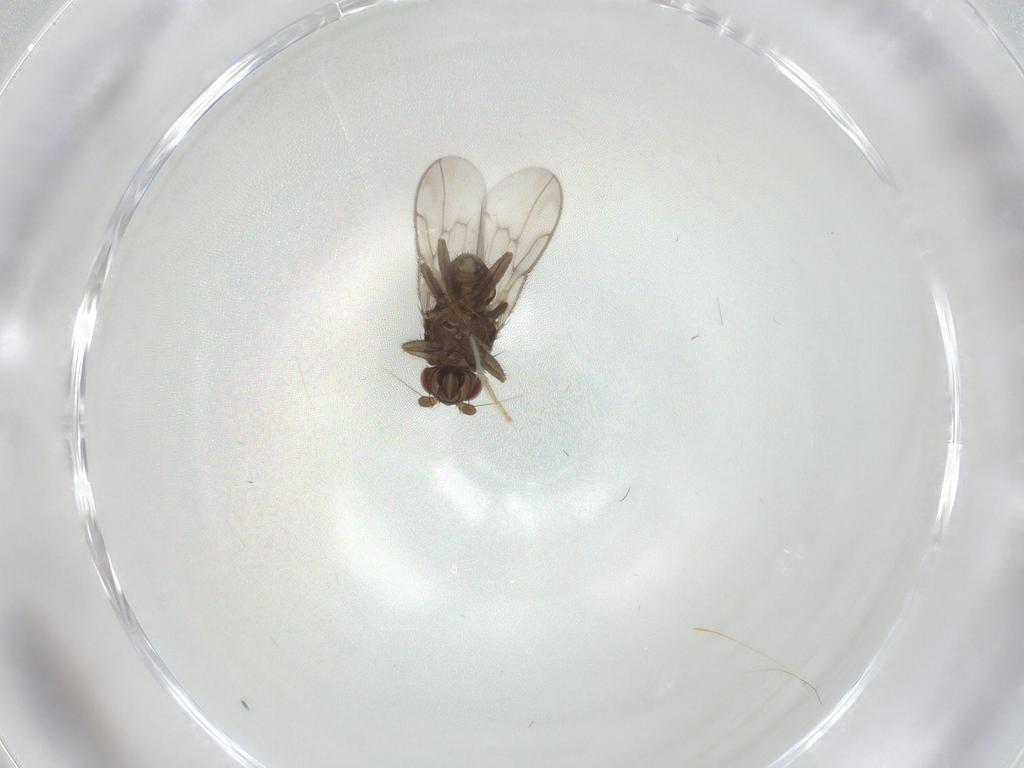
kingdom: Animalia
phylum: Arthropoda
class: Insecta
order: Diptera
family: Sphaeroceridae
